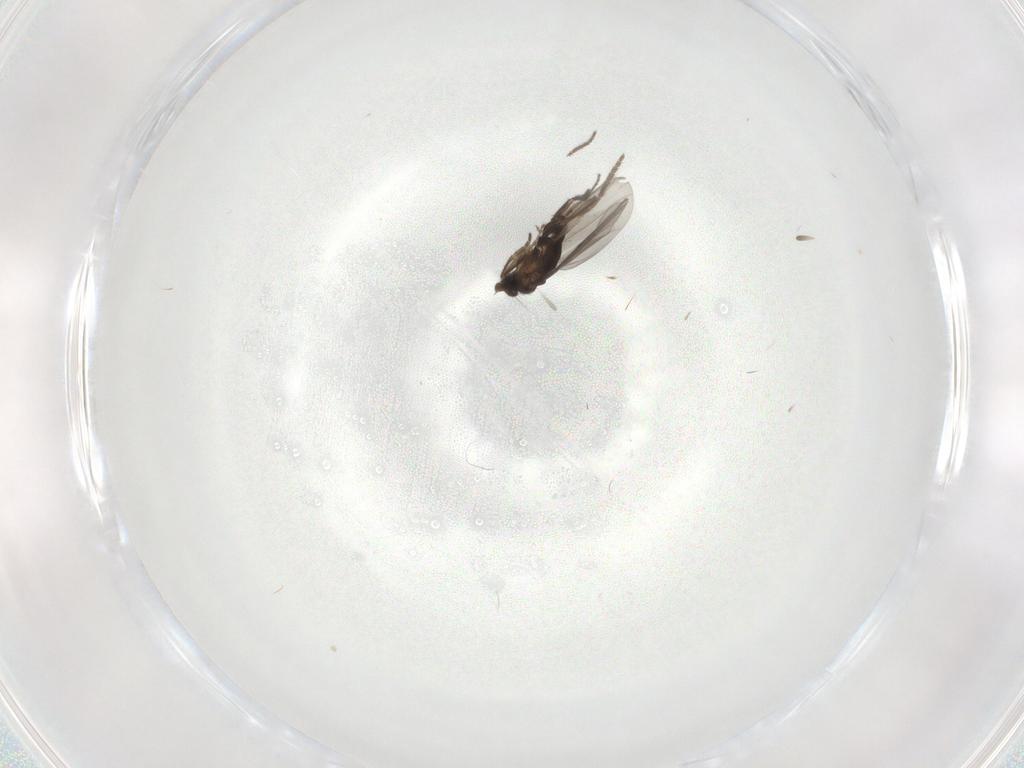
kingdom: Animalia
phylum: Arthropoda
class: Insecta
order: Diptera
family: Phoridae
